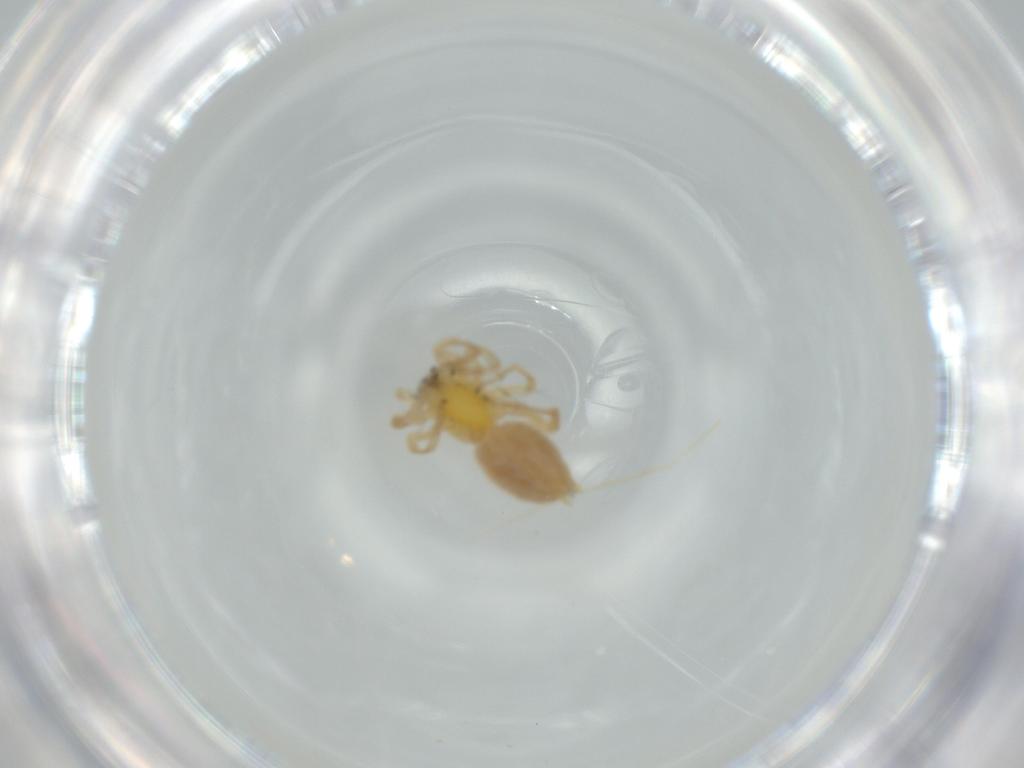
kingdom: Animalia
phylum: Arthropoda
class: Arachnida
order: Araneae
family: Anyphaenidae
